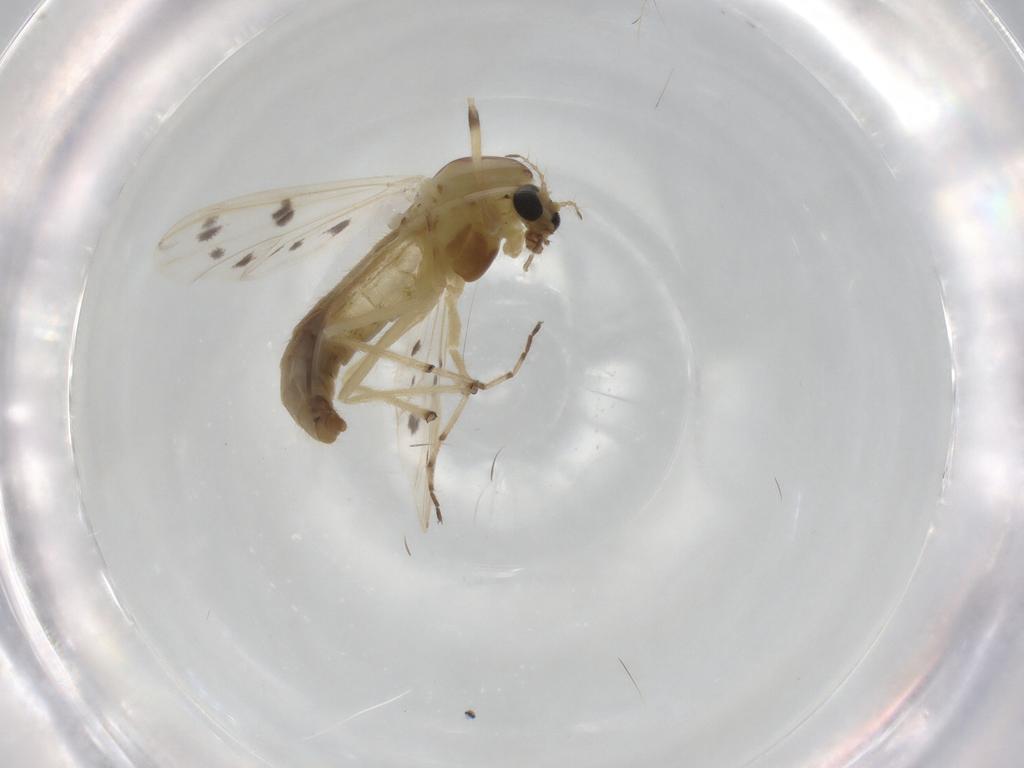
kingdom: Animalia
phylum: Arthropoda
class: Insecta
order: Diptera
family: Chironomidae
